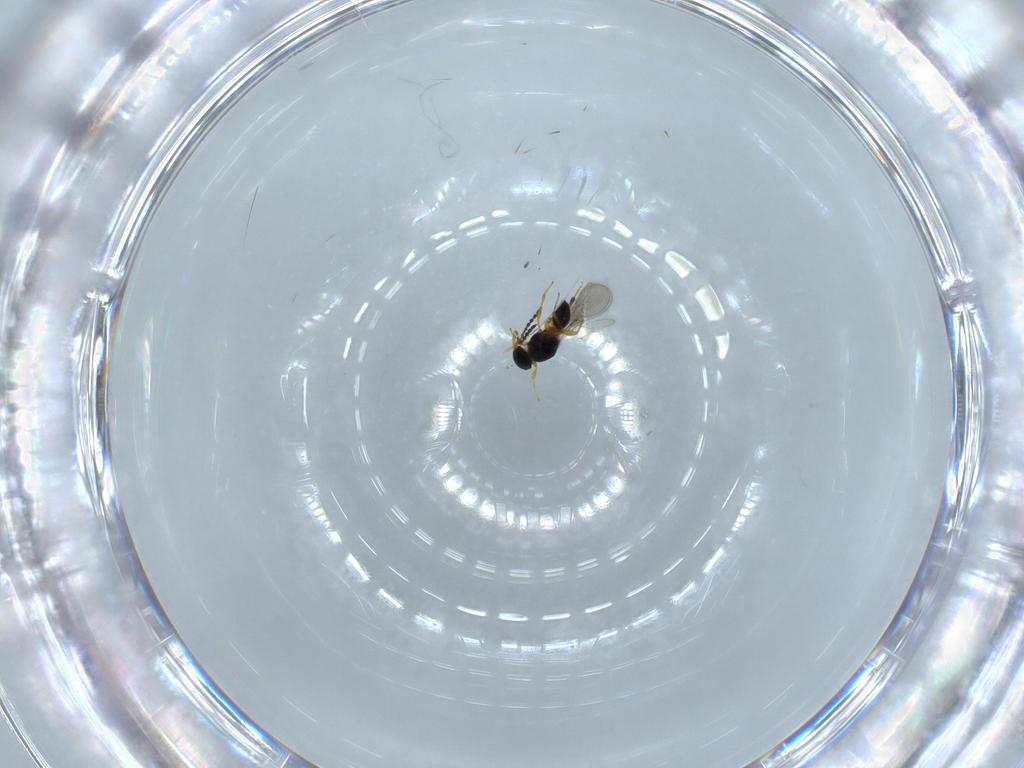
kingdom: Animalia
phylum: Arthropoda
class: Insecta
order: Hymenoptera
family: Platygastridae
